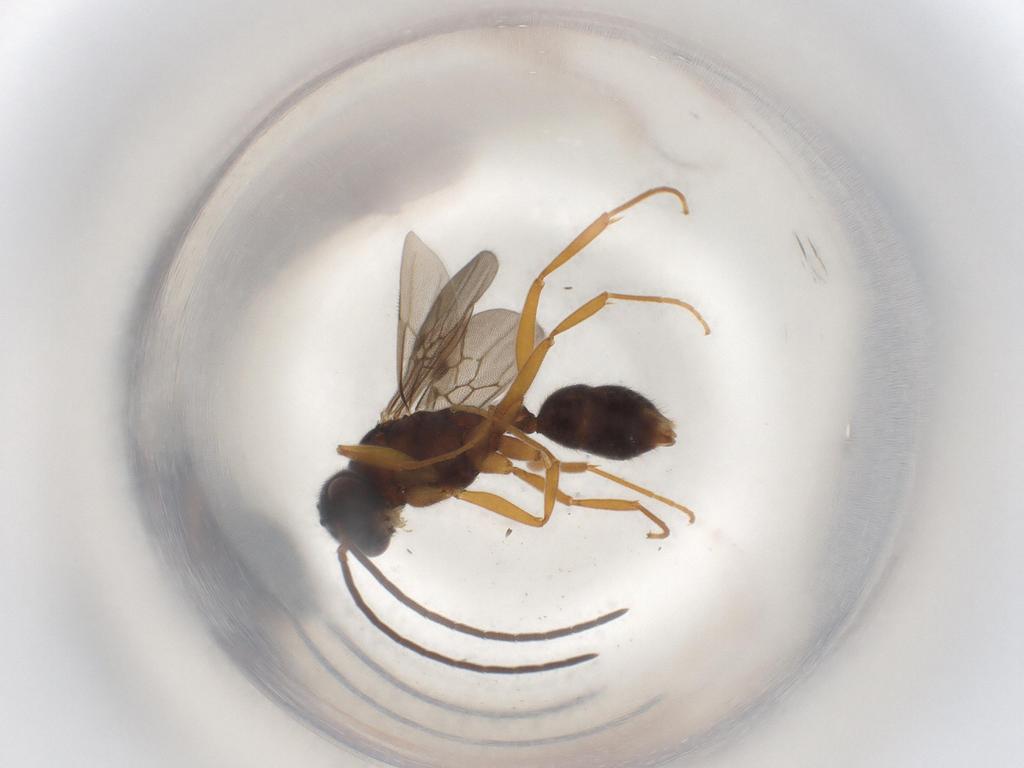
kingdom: Animalia
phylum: Arthropoda
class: Insecta
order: Hymenoptera
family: Formicidae
